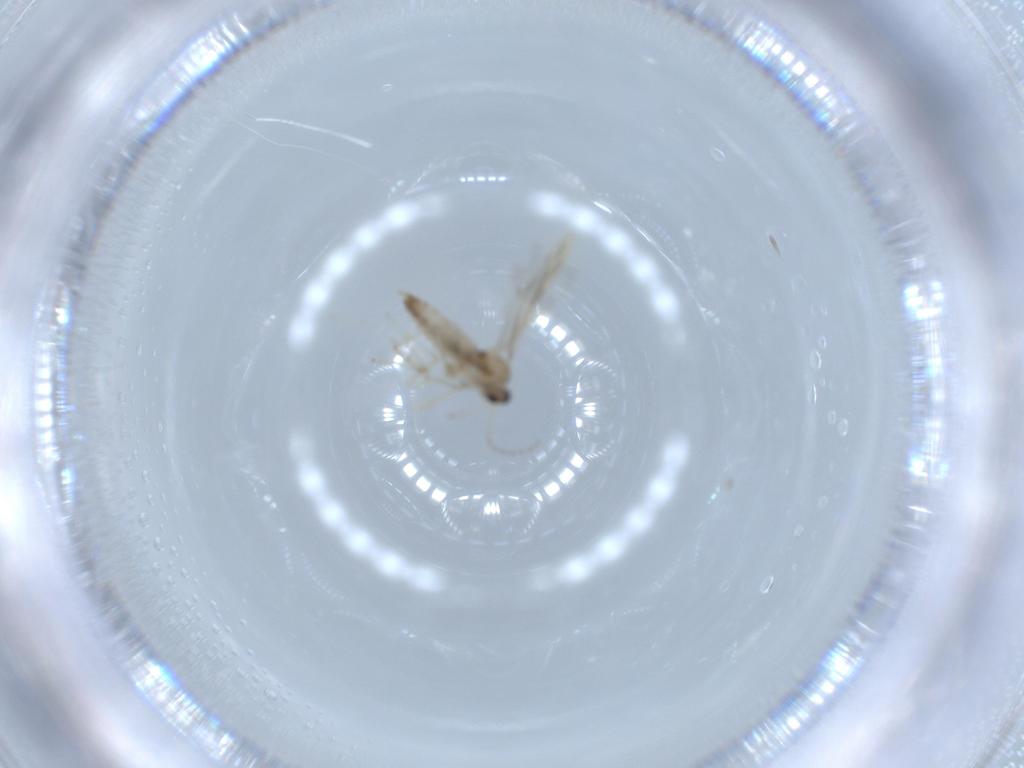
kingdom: Animalia
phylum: Arthropoda
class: Insecta
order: Diptera
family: Cecidomyiidae
